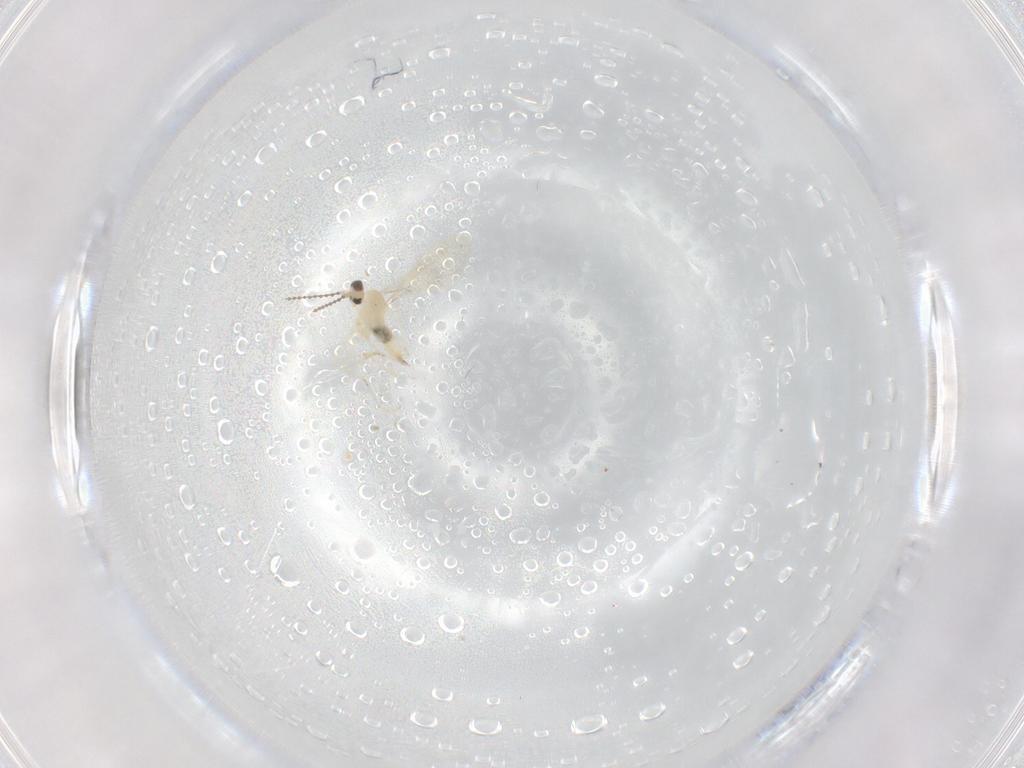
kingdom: Animalia
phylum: Arthropoda
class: Insecta
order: Diptera
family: Cecidomyiidae
